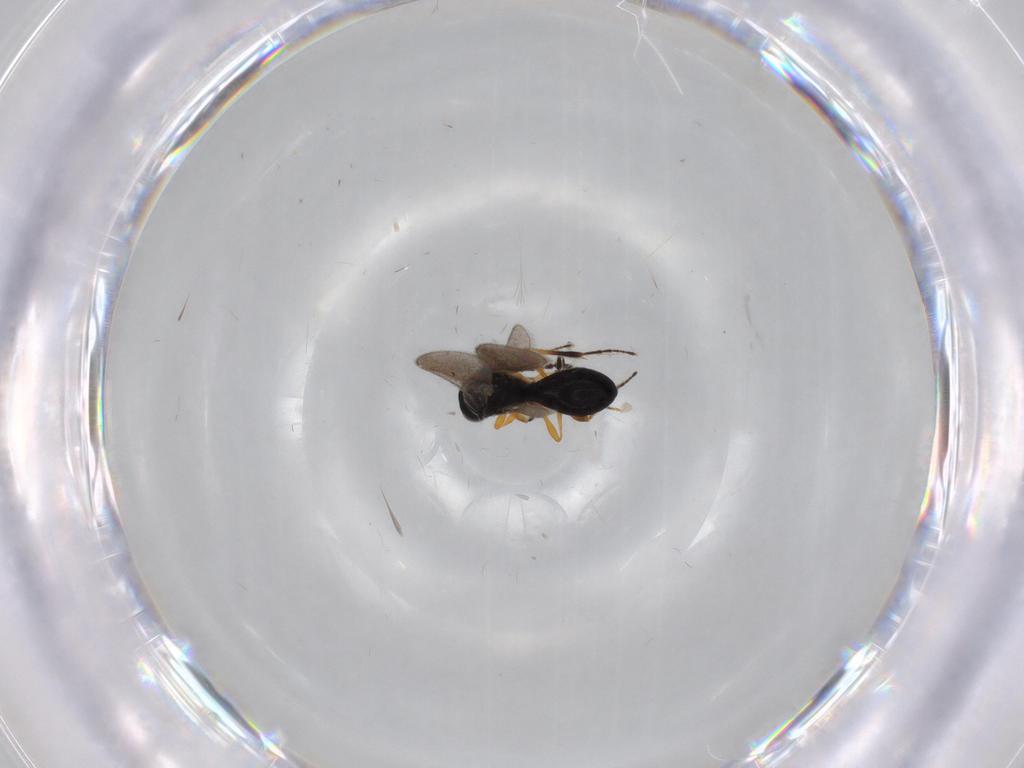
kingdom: Animalia
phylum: Arthropoda
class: Insecta
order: Hymenoptera
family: Platygastridae
